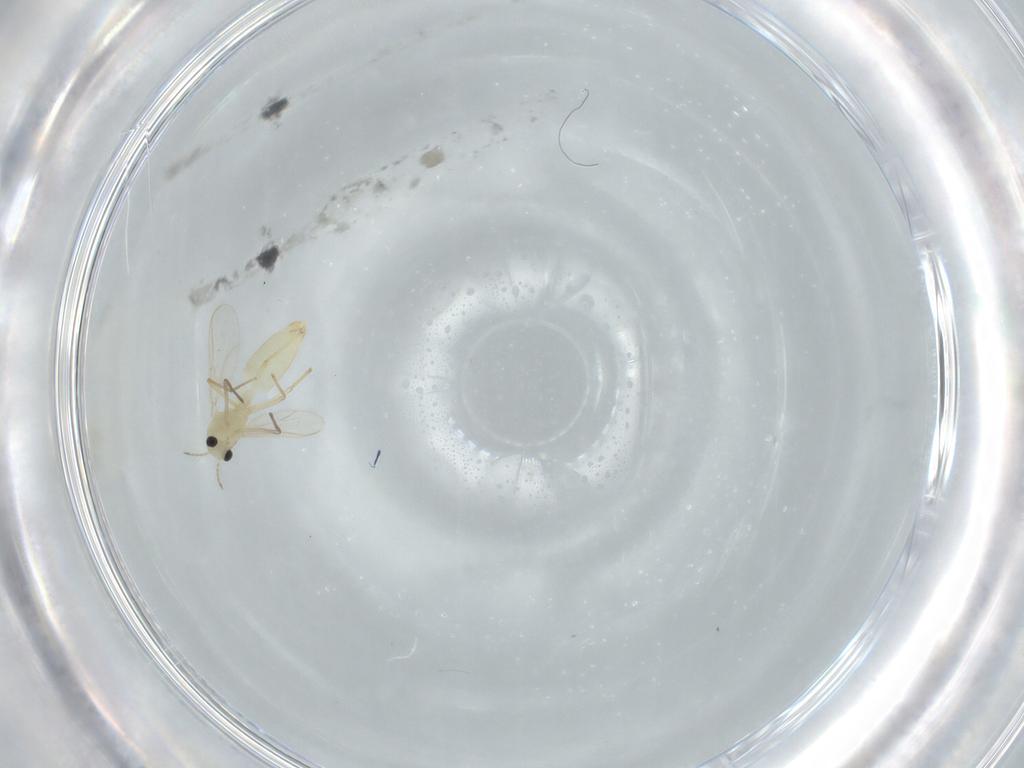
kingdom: Animalia
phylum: Arthropoda
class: Insecta
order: Diptera
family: Chironomidae
